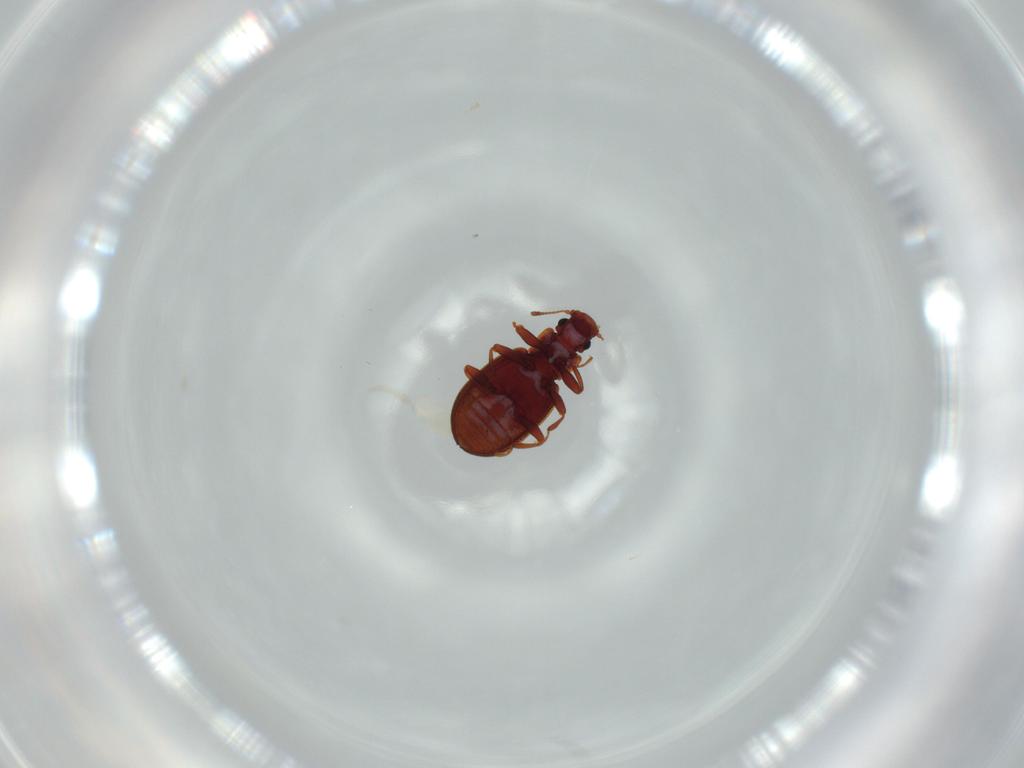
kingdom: Animalia
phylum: Arthropoda
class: Insecta
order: Coleoptera
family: Latridiidae
